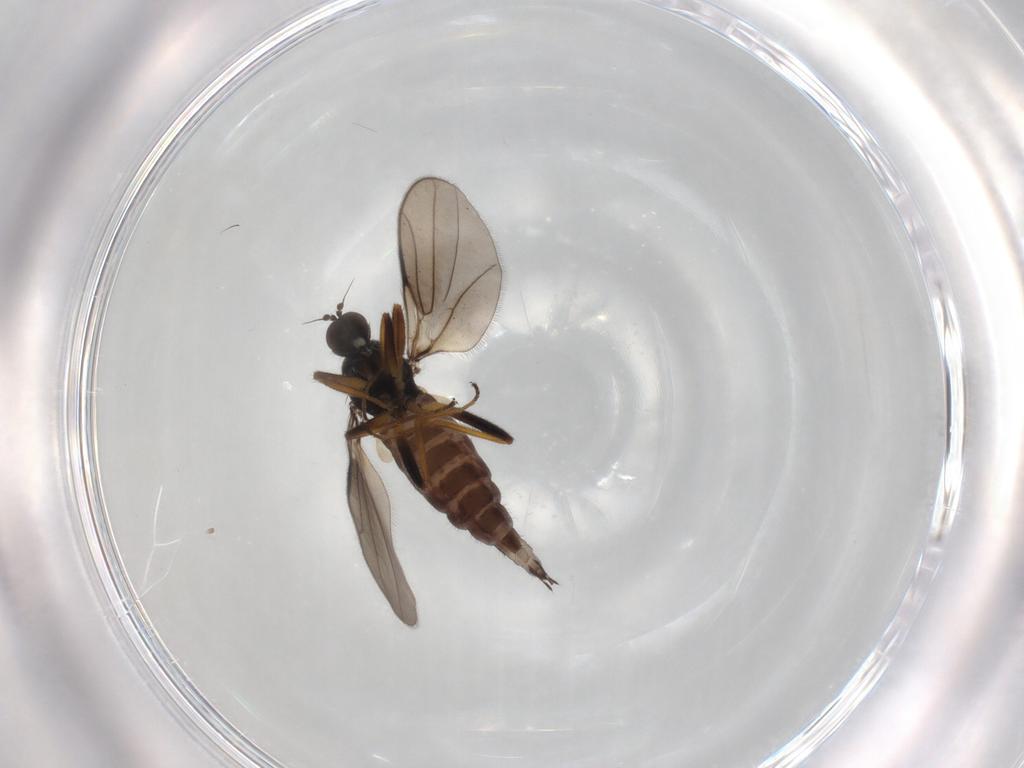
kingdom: Animalia
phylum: Arthropoda
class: Insecta
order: Diptera
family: Hybotidae
